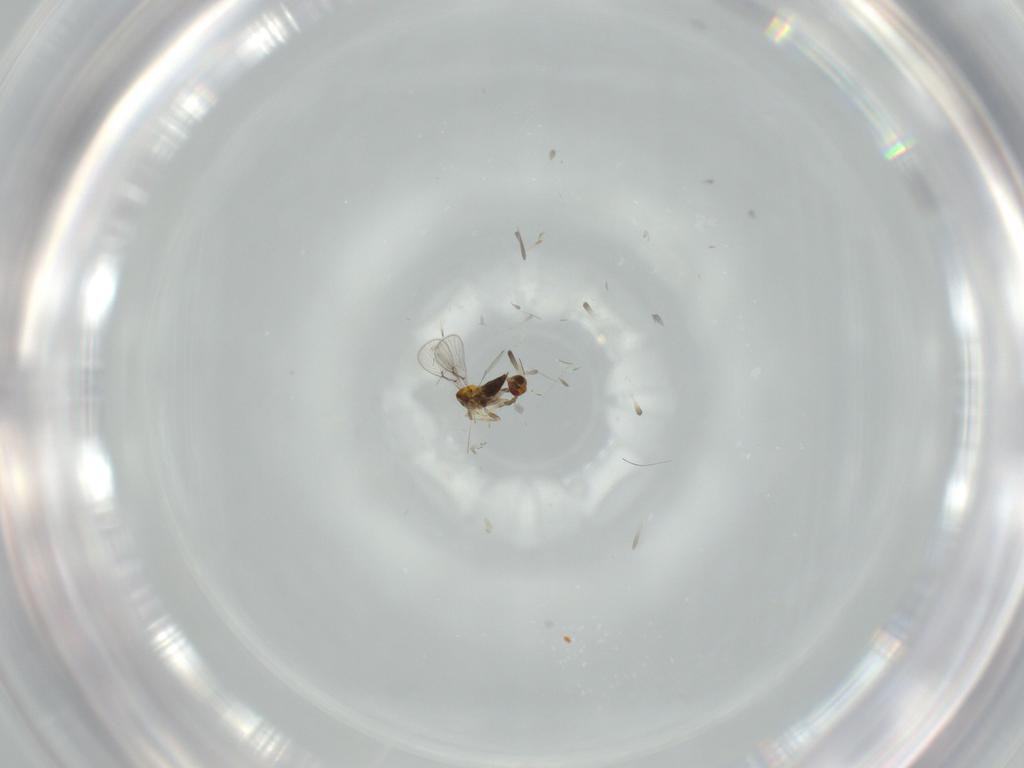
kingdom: Animalia
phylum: Arthropoda
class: Insecta
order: Hymenoptera
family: Trichogrammatidae
